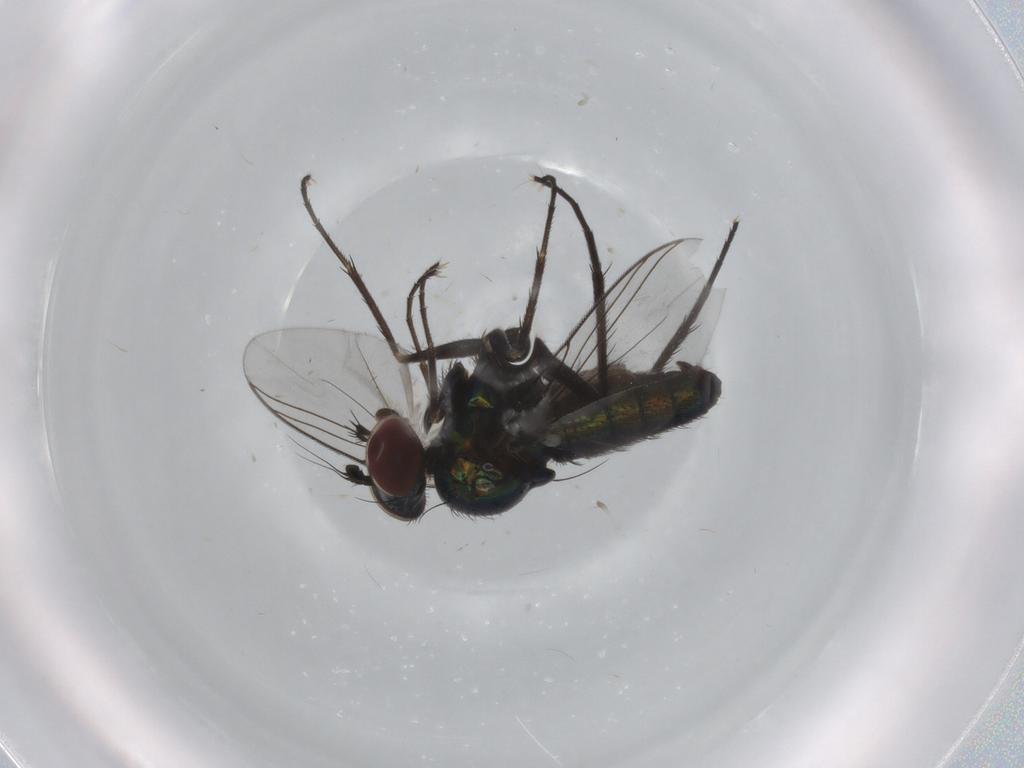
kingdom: Animalia
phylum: Arthropoda
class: Insecta
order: Diptera
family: Dolichopodidae
